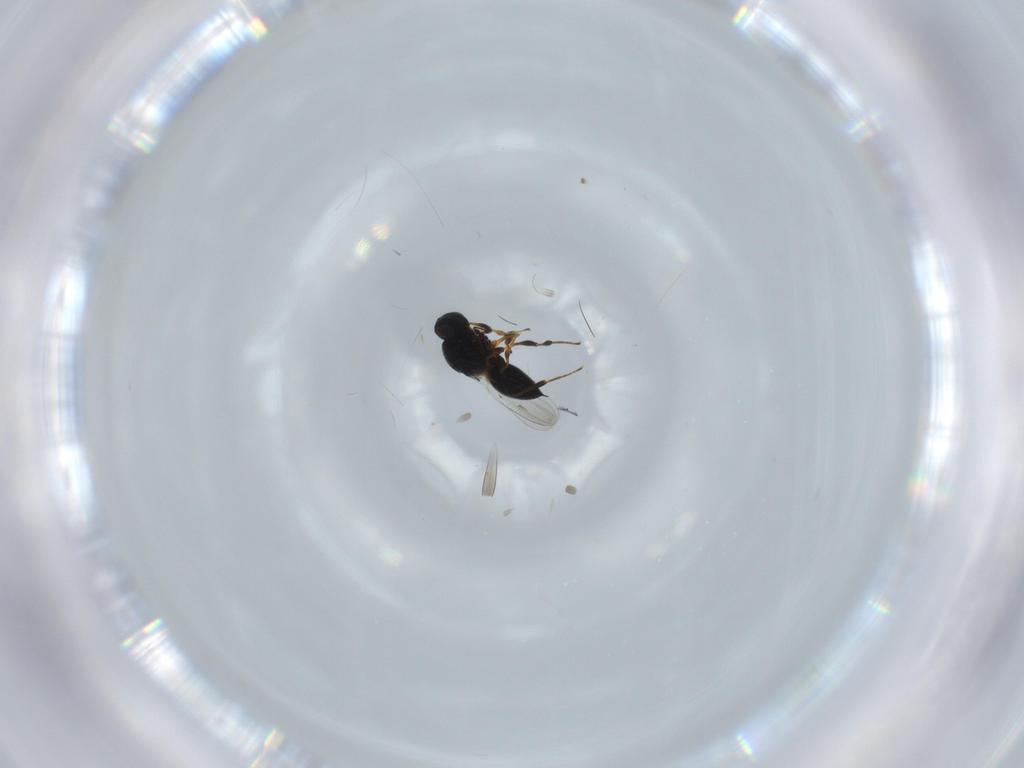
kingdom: Animalia
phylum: Arthropoda
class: Insecta
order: Hymenoptera
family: Platygastridae
